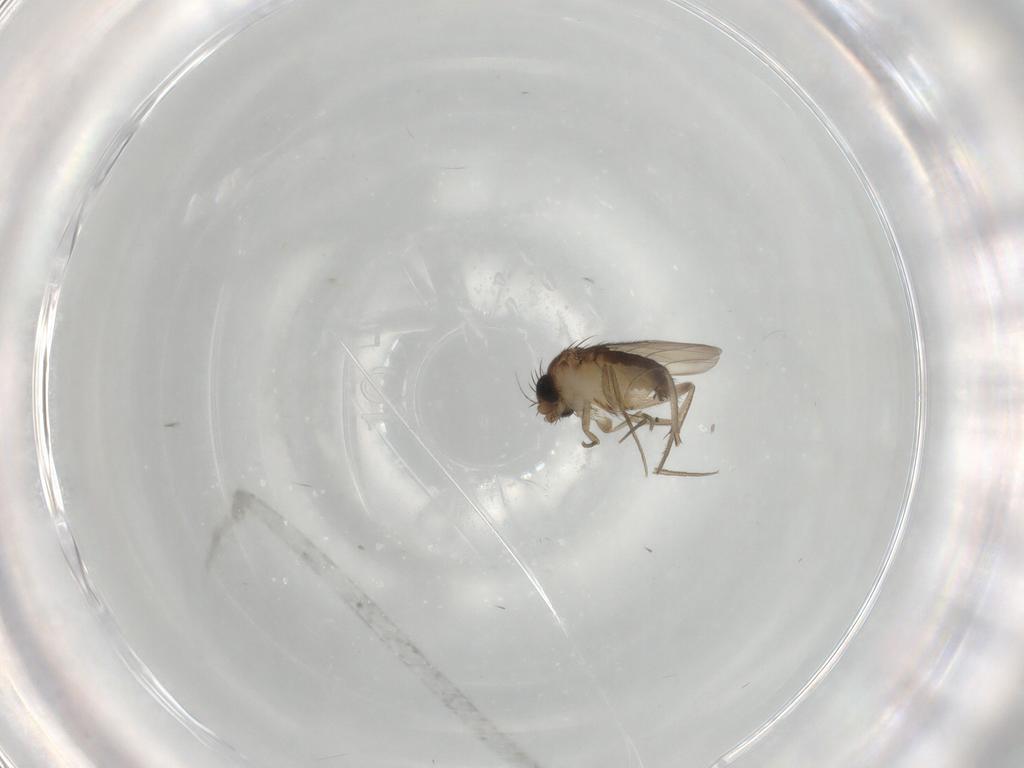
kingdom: Animalia
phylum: Arthropoda
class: Insecta
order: Diptera
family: Phoridae
